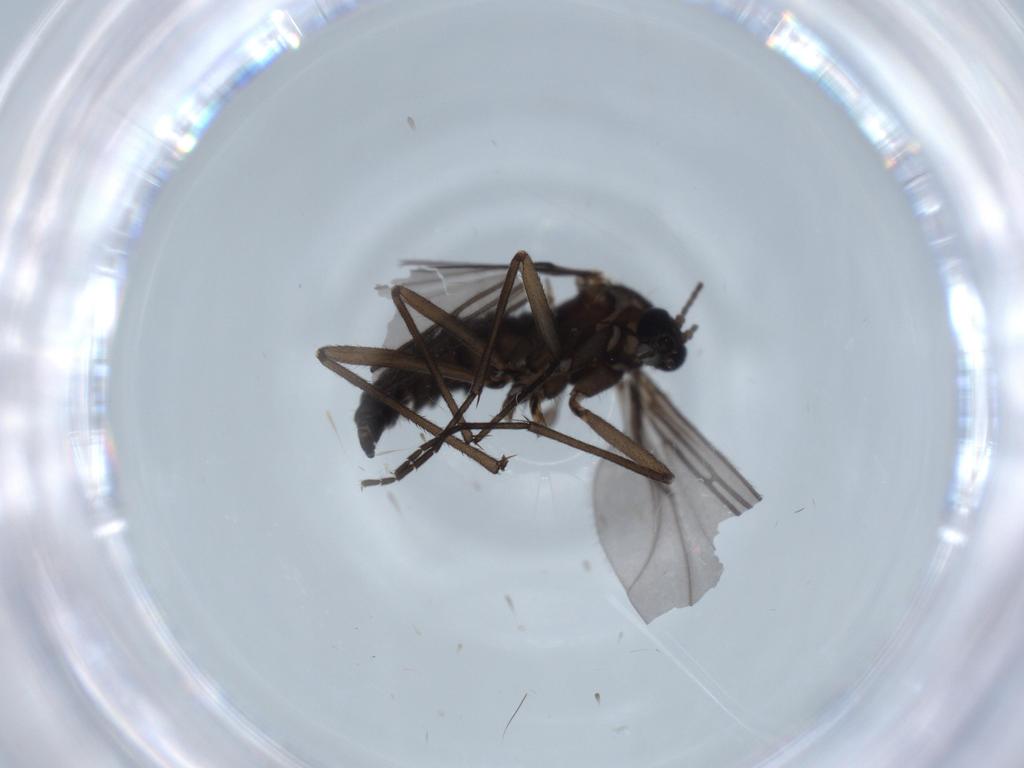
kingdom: Animalia
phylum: Arthropoda
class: Insecta
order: Diptera
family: Sciaridae
